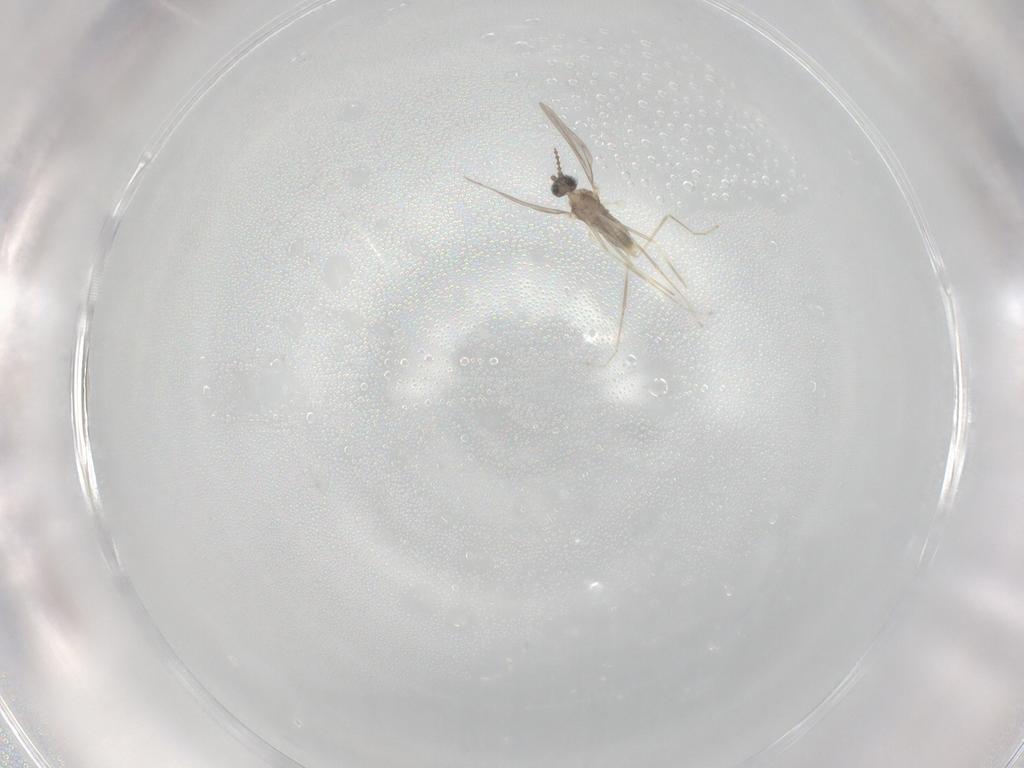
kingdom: Animalia
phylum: Arthropoda
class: Insecta
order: Diptera
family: Cecidomyiidae
